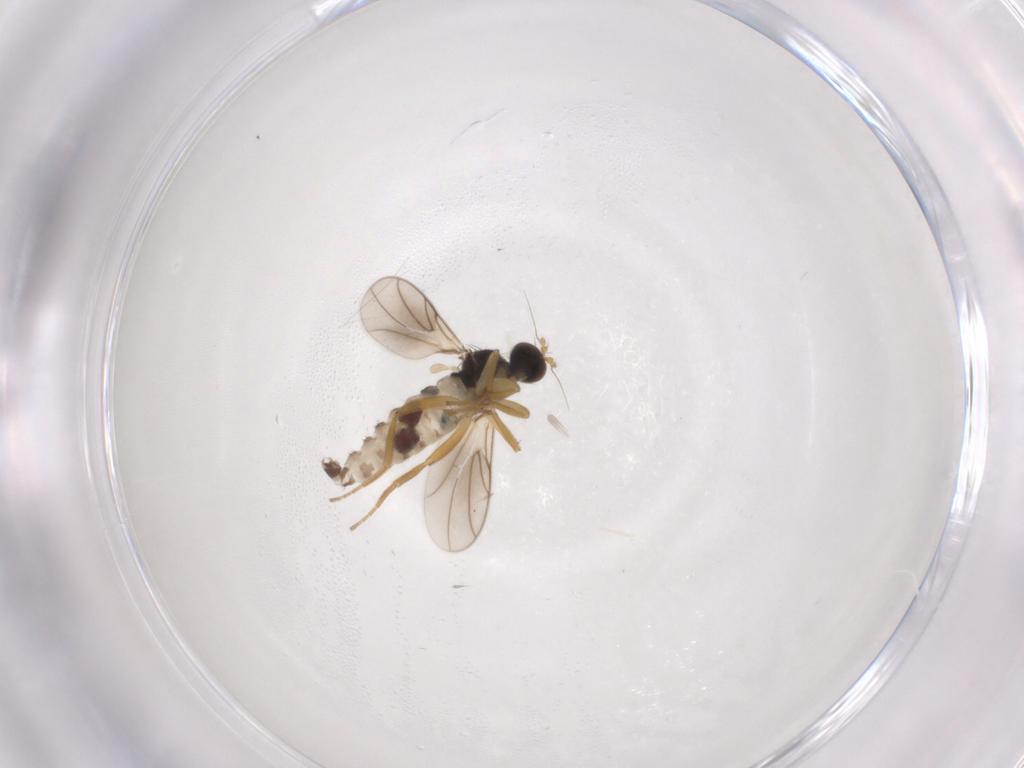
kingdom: Animalia
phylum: Arthropoda
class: Insecta
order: Diptera
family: Hybotidae
